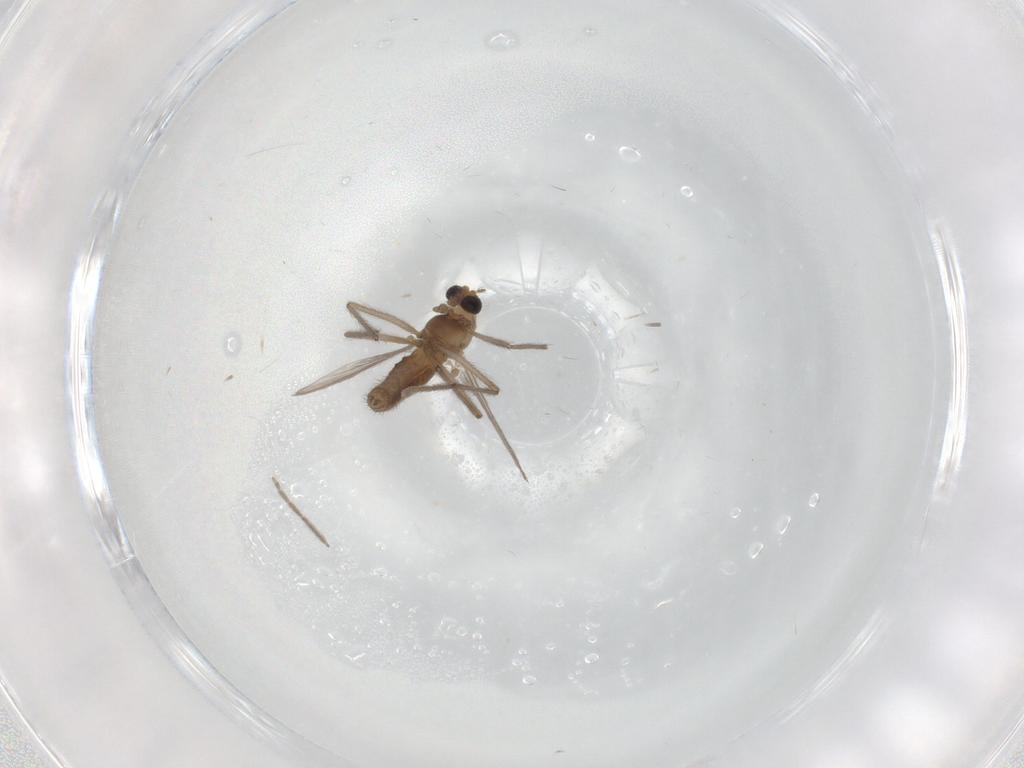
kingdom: Animalia
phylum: Arthropoda
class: Insecta
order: Diptera
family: Chironomidae
